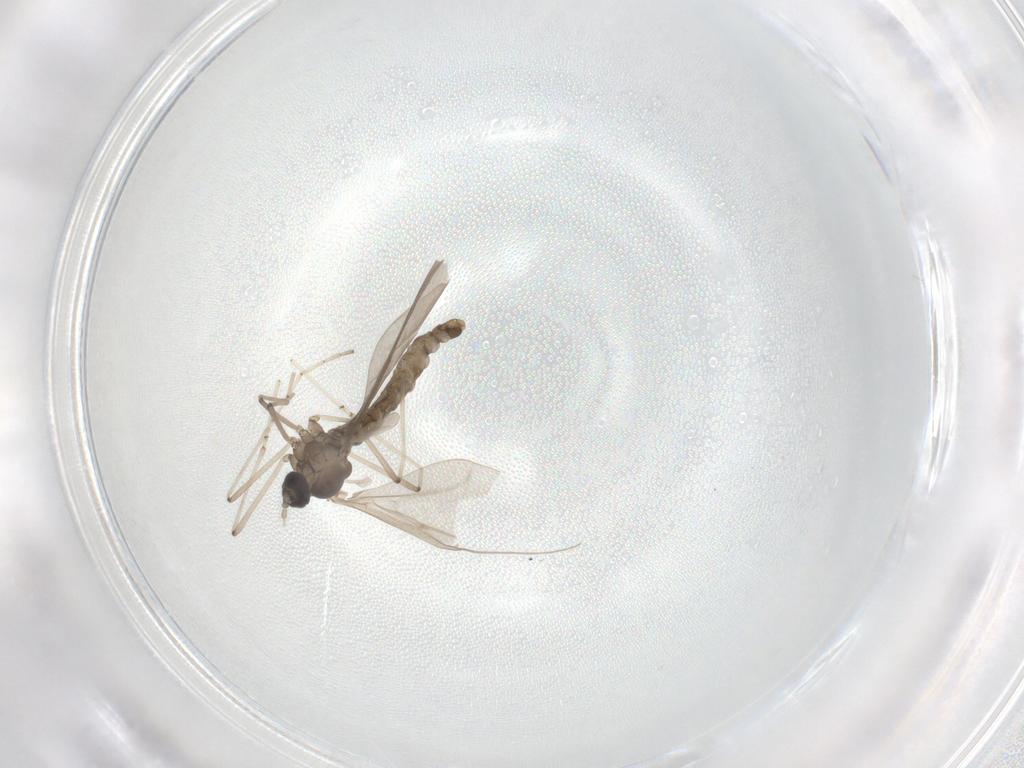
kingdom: Animalia
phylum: Arthropoda
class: Insecta
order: Diptera
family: Cecidomyiidae
